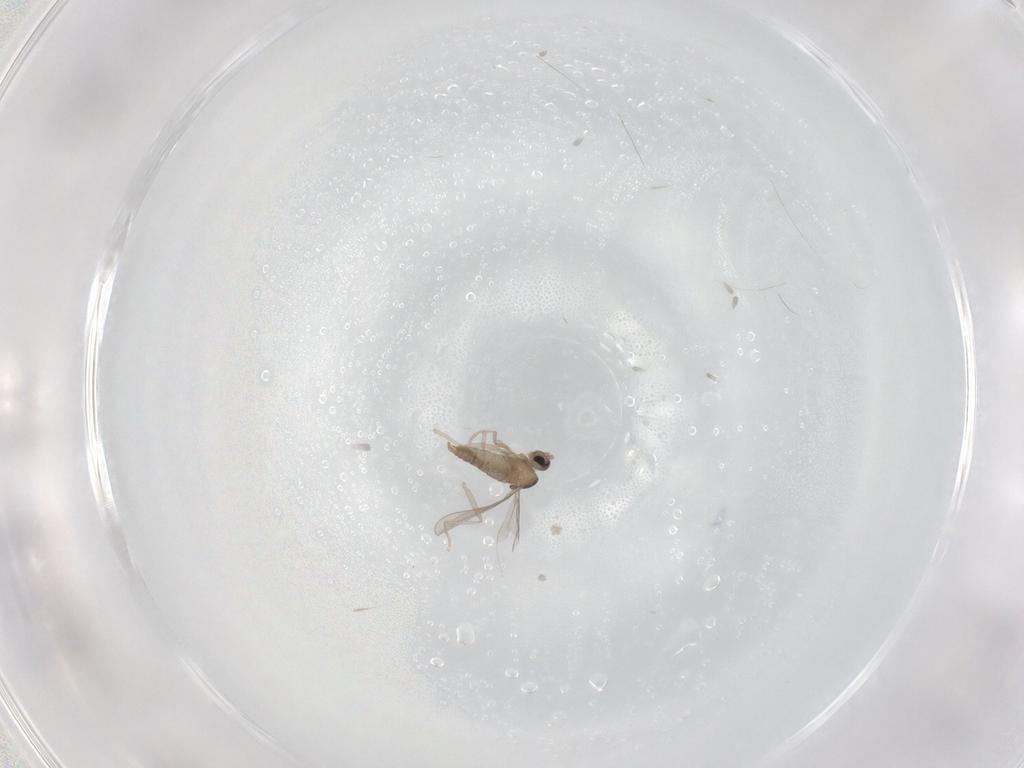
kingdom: Animalia
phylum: Arthropoda
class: Insecta
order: Diptera
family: Cecidomyiidae
